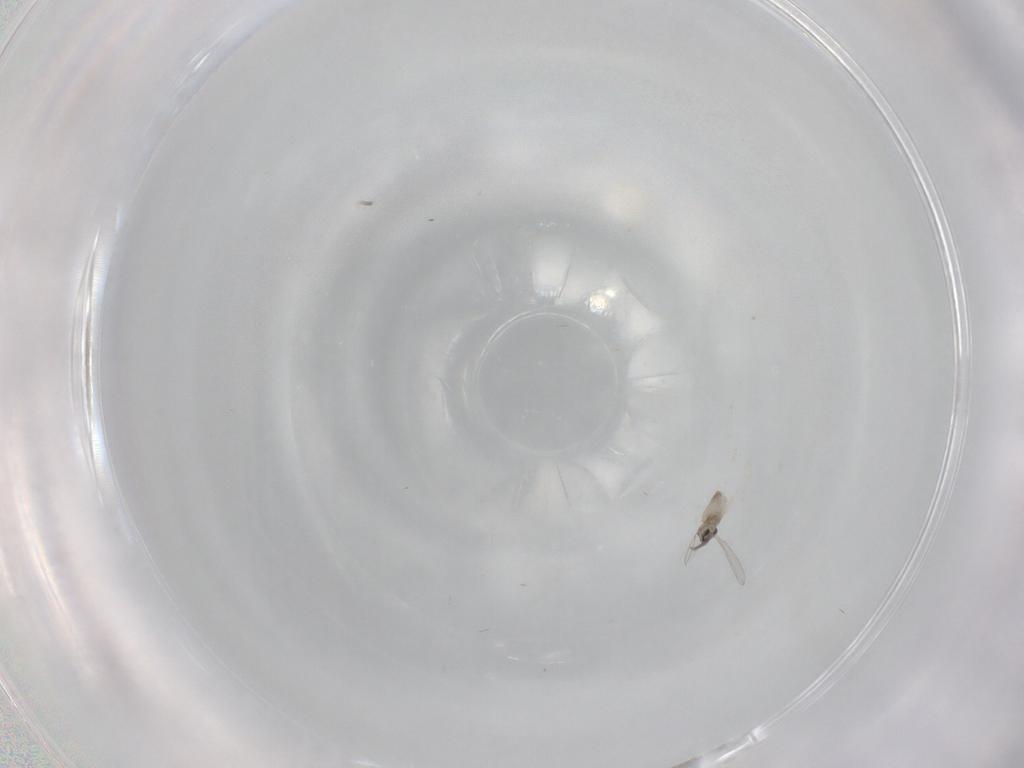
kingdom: Animalia
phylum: Arthropoda
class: Insecta
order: Diptera
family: Cecidomyiidae
